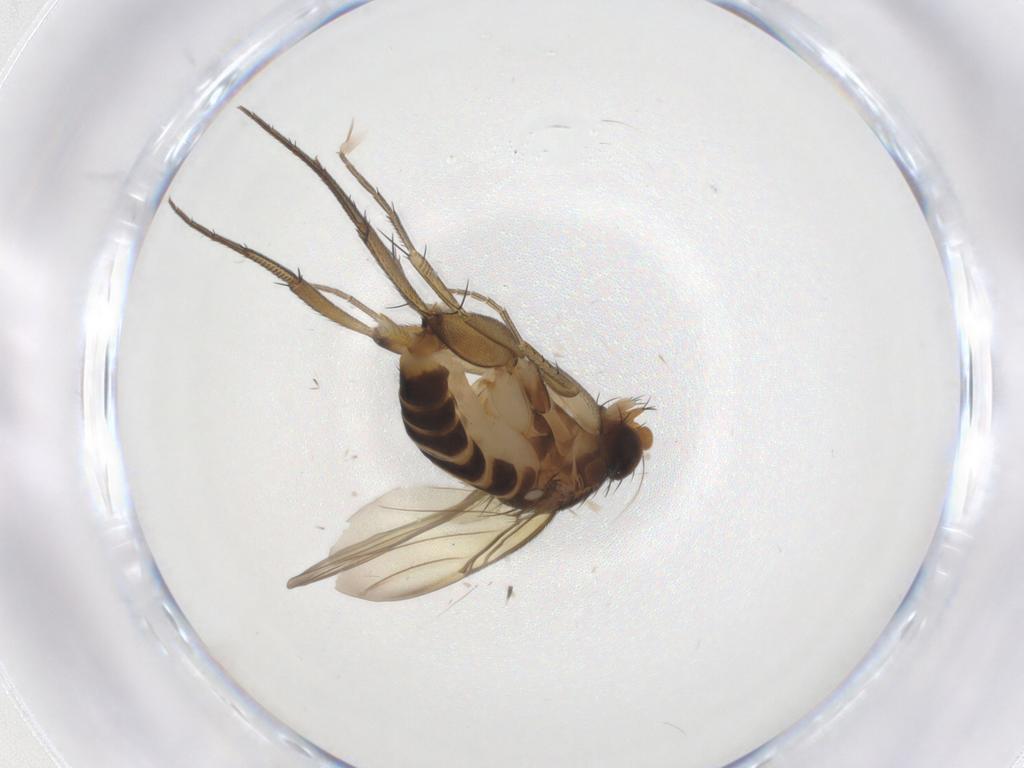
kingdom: Animalia
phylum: Arthropoda
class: Insecta
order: Diptera
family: Phoridae
